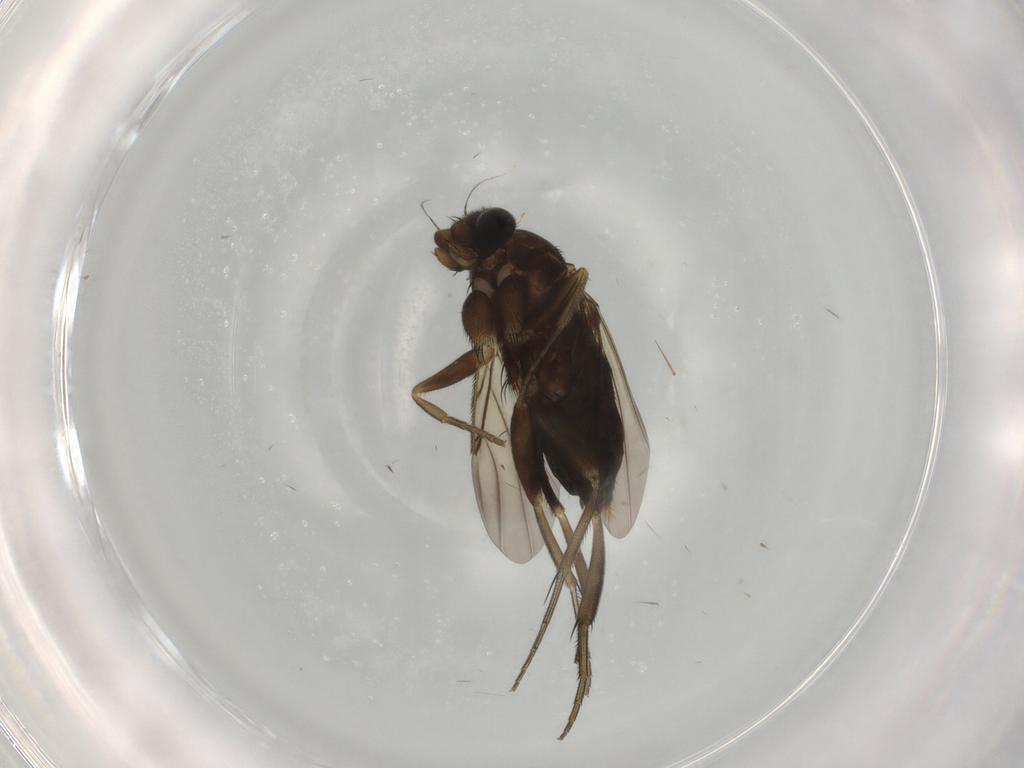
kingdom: Animalia
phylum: Arthropoda
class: Insecta
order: Diptera
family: Phoridae
